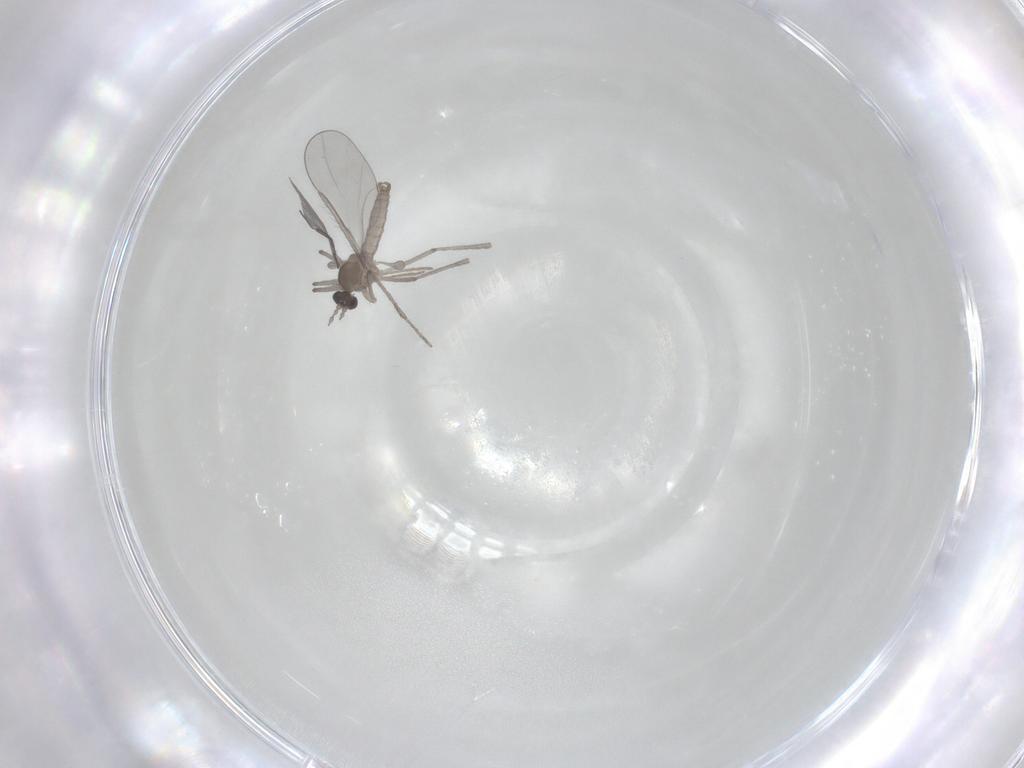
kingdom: Animalia
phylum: Arthropoda
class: Insecta
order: Diptera
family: Cecidomyiidae
